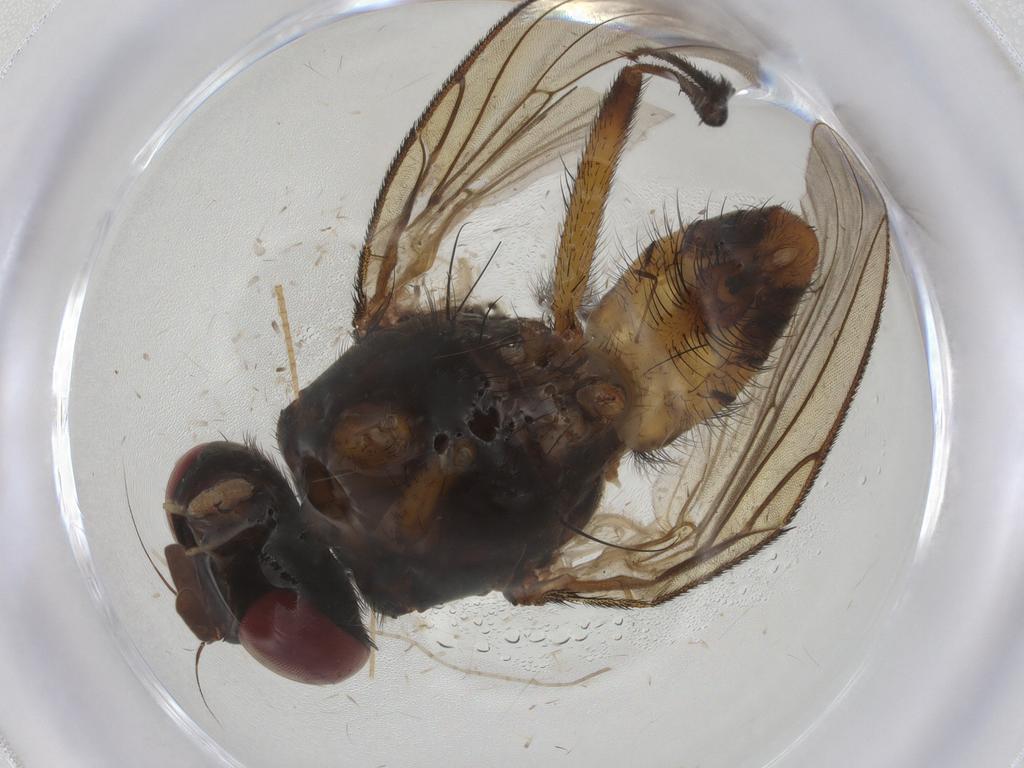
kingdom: Animalia
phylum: Arthropoda
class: Insecta
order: Diptera
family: Anthomyiidae
